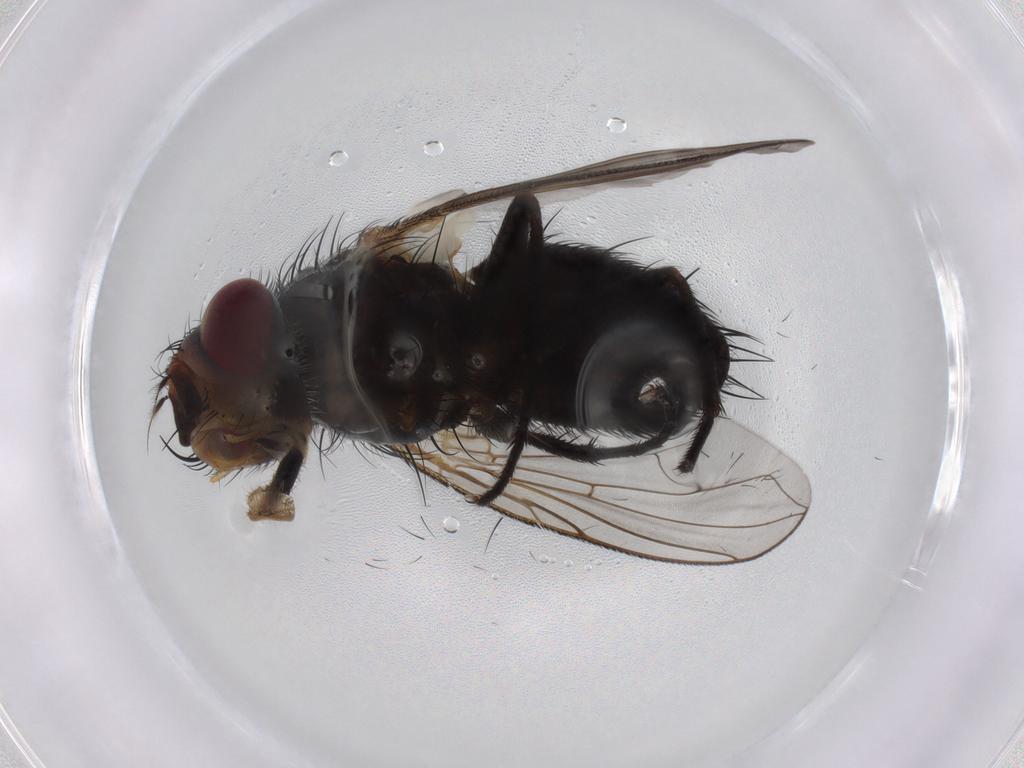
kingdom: Animalia
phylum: Arthropoda
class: Insecta
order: Diptera
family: Tachinidae
